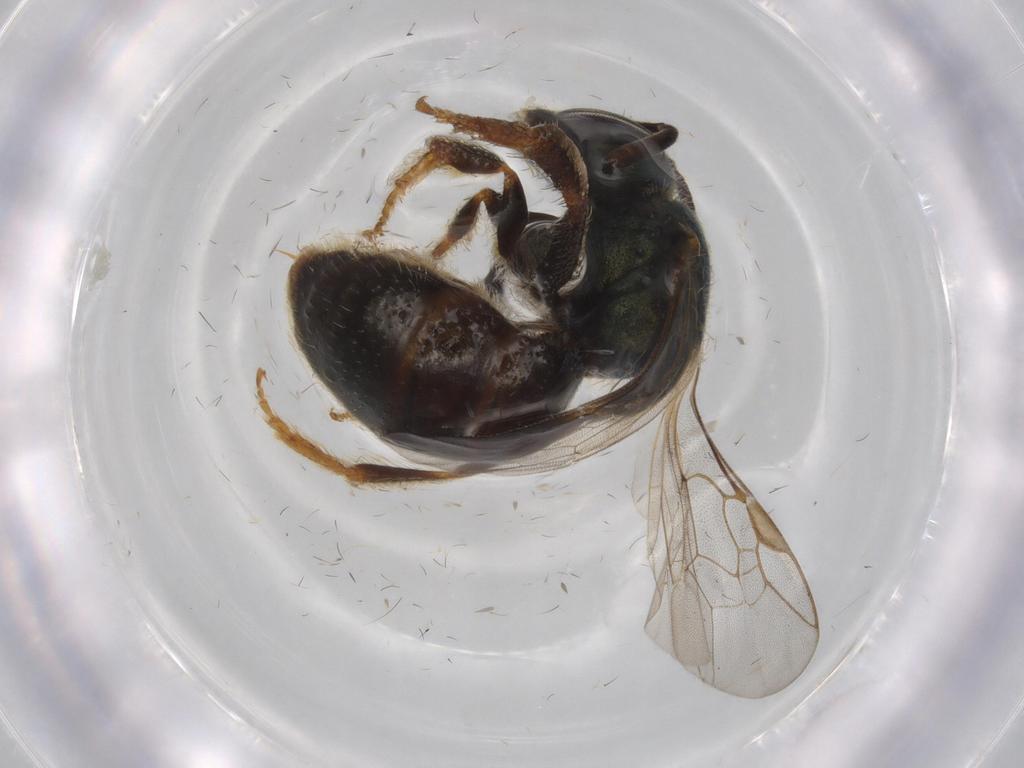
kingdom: Animalia
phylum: Arthropoda
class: Insecta
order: Hymenoptera
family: Halictidae
